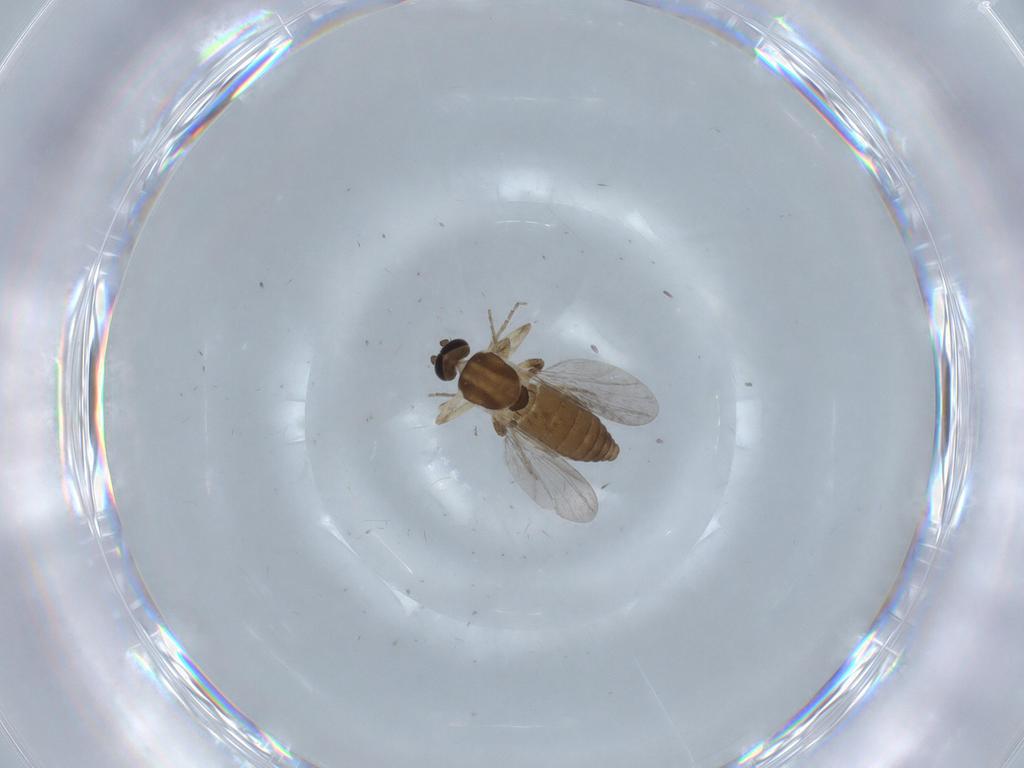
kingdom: Animalia
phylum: Arthropoda
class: Insecta
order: Diptera
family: Ceratopogonidae
